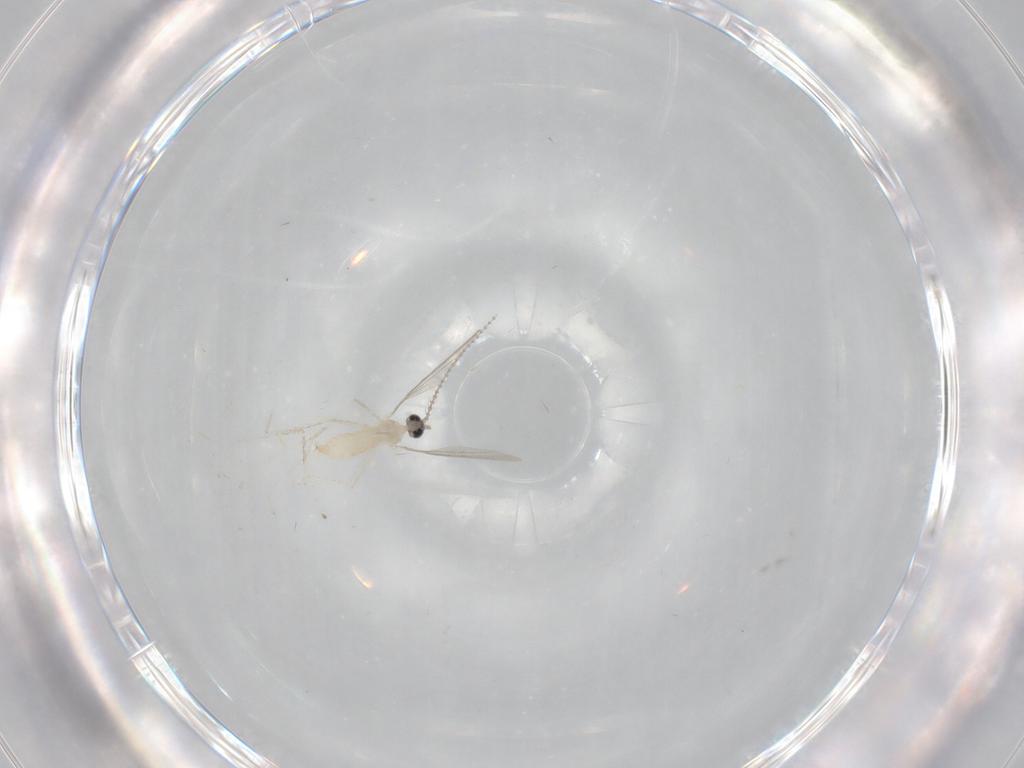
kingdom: Animalia
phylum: Arthropoda
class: Insecta
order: Diptera
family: Cecidomyiidae
